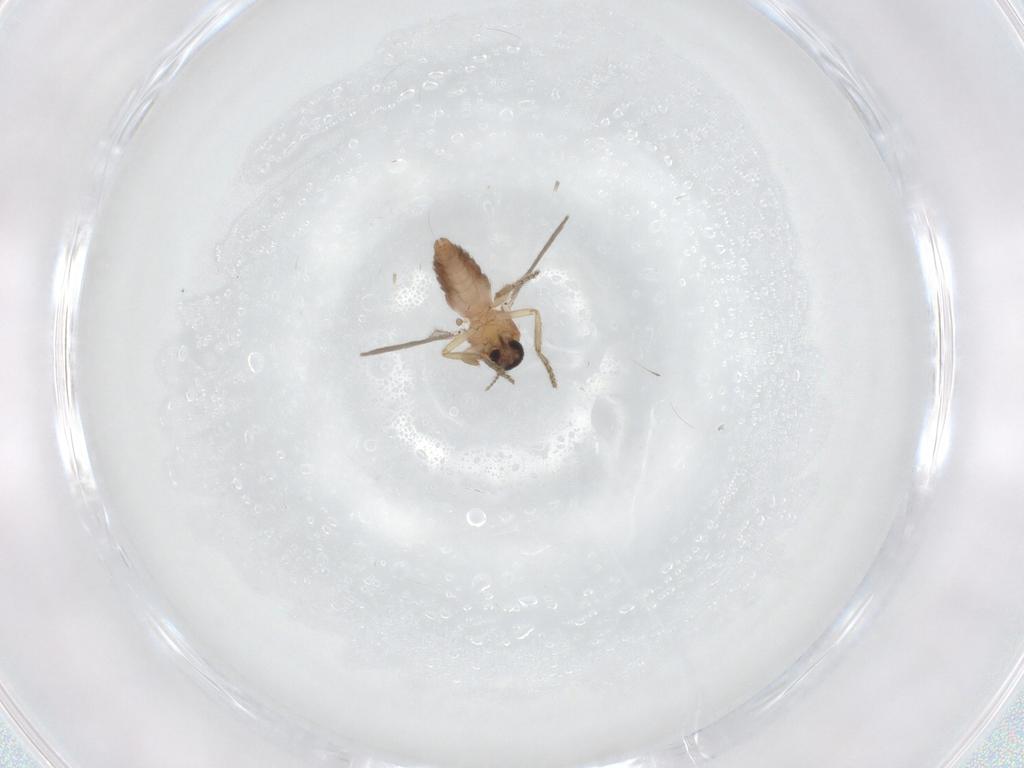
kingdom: Animalia
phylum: Arthropoda
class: Insecta
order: Diptera
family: Ceratopogonidae
